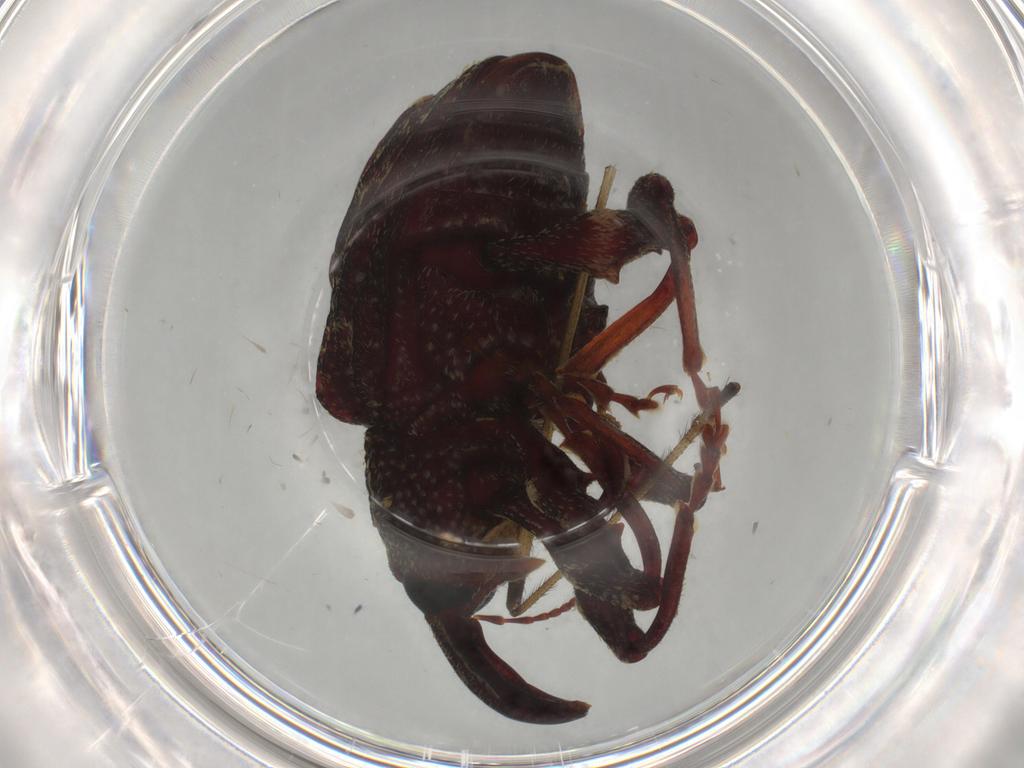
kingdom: Animalia
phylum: Arthropoda
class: Insecta
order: Coleoptera
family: Curculionidae
